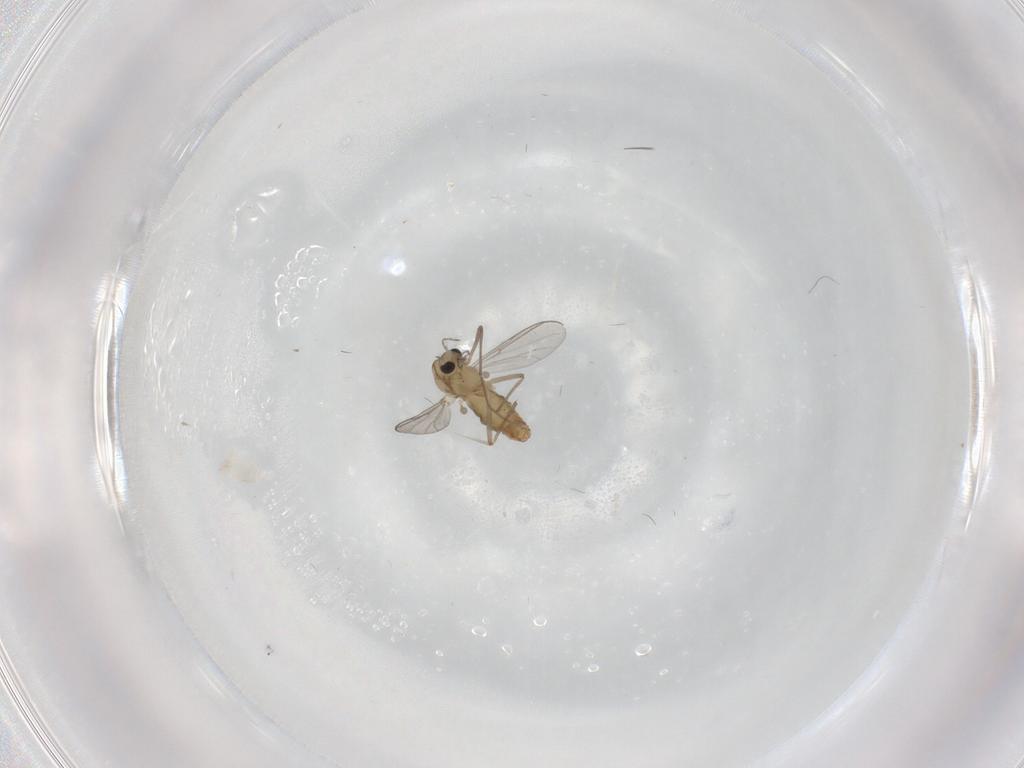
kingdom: Animalia
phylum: Arthropoda
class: Insecta
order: Diptera
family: Chironomidae
